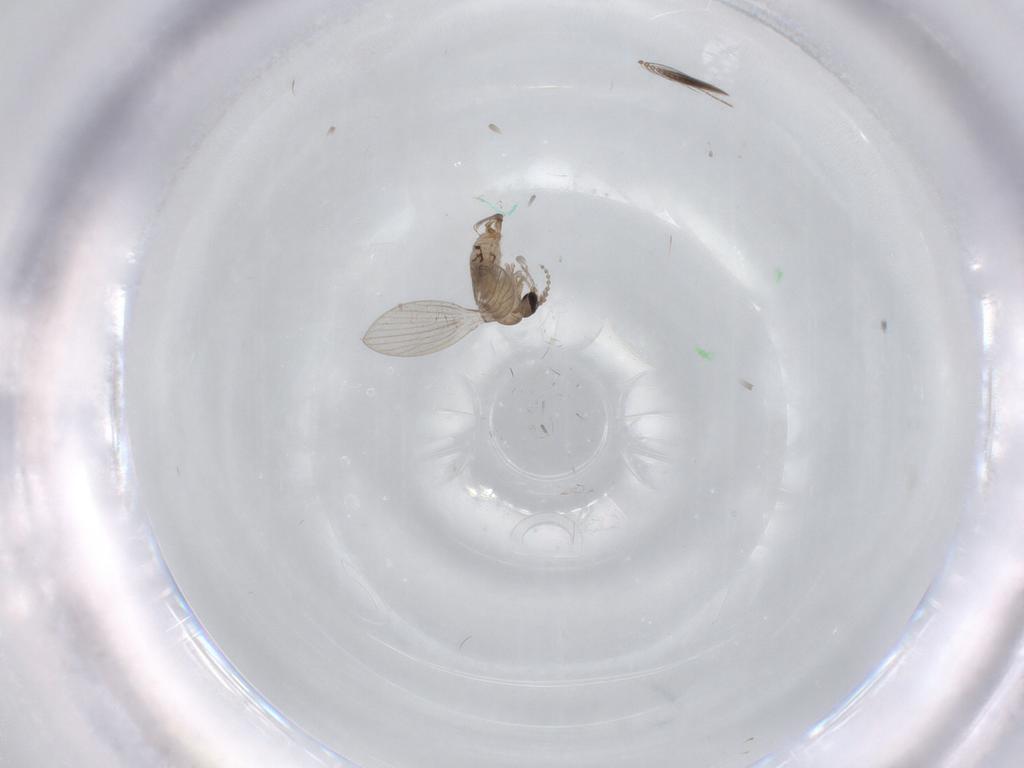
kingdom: Animalia
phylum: Arthropoda
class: Insecta
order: Diptera
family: Psychodidae
